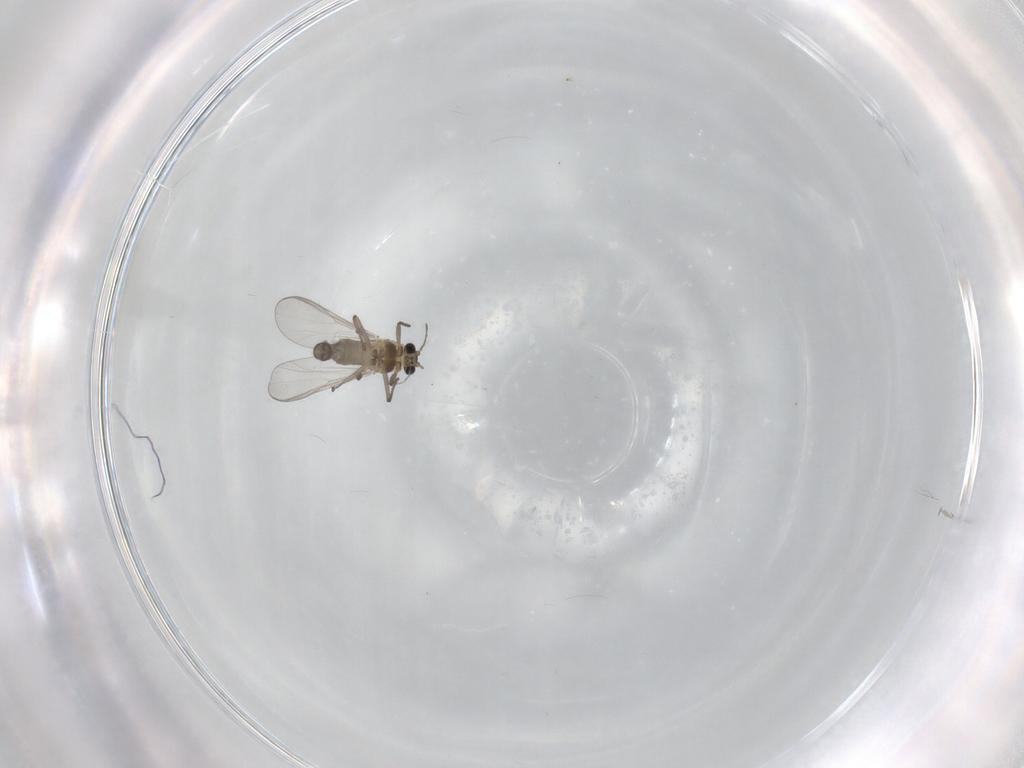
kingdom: Animalia
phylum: Arthropoda
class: Insecta
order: Diptera
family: Chironomidae
